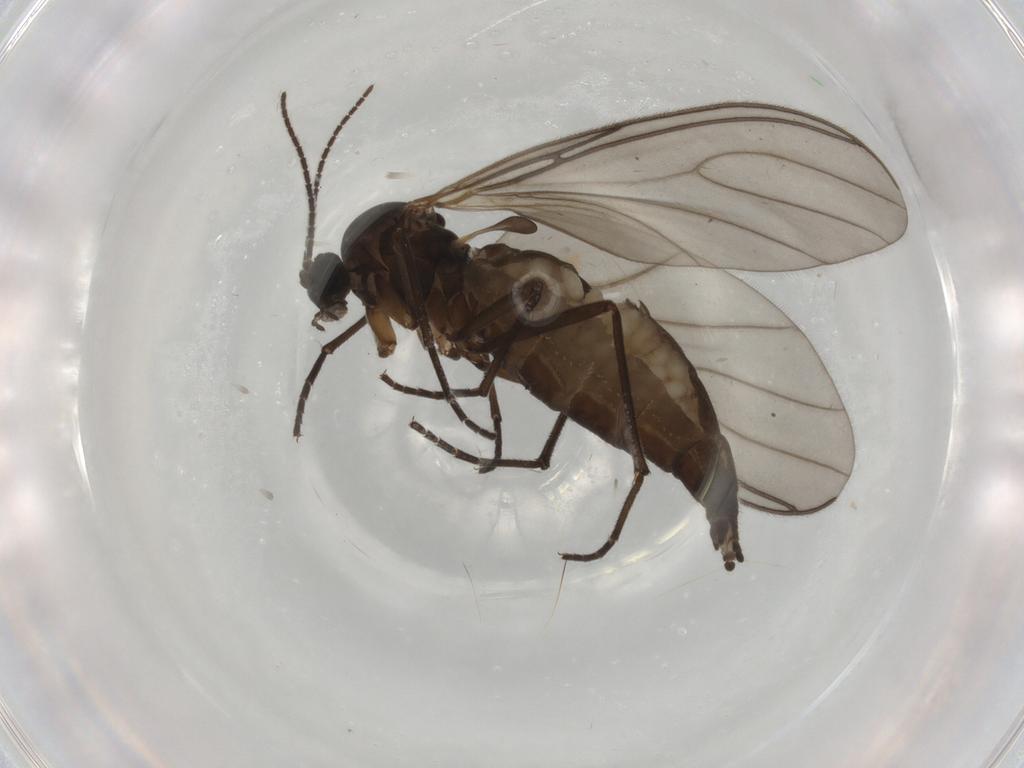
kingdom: Animalia
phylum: Arthropoda
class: Insecta
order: Diptera
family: Sciaridae
